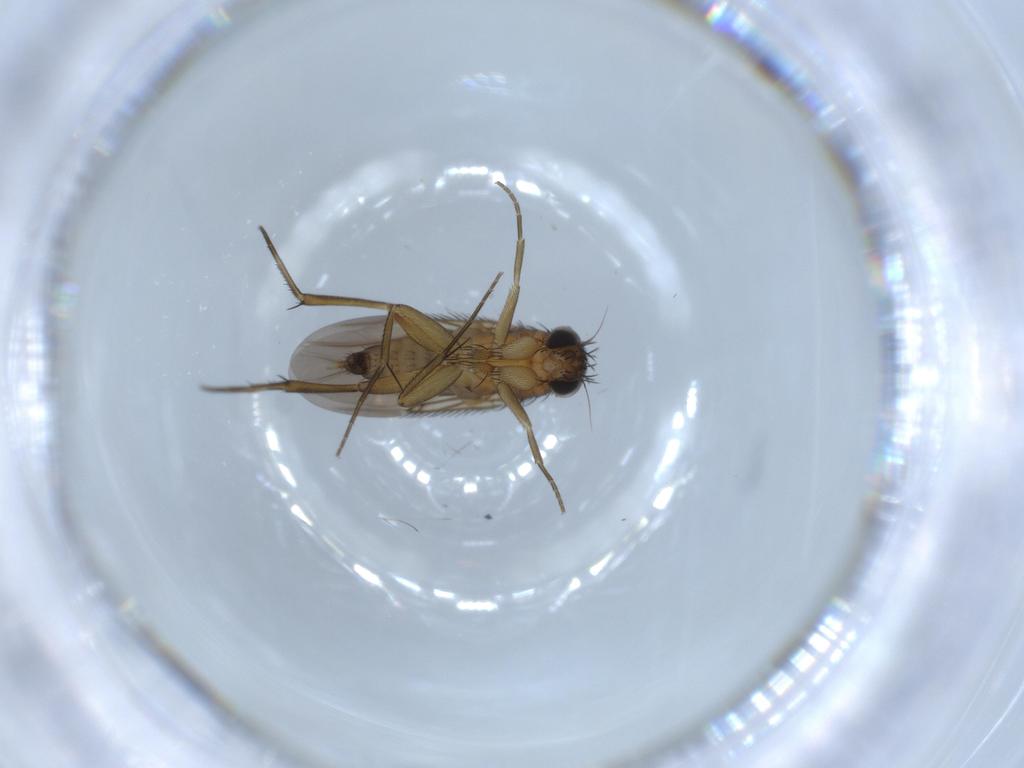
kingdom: Animalia
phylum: Arthropoda
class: Insecta
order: Diptera
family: Phoridae
